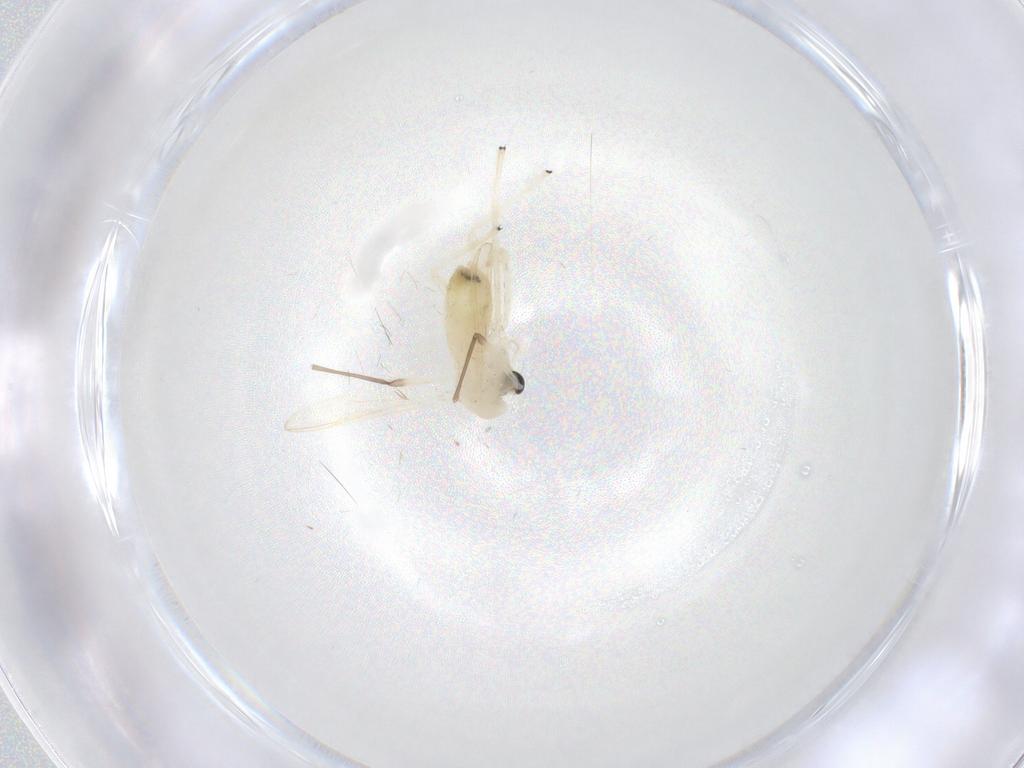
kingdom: Animalia
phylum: Arthropoda
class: Insecta
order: Diptera
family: Chironomidae
